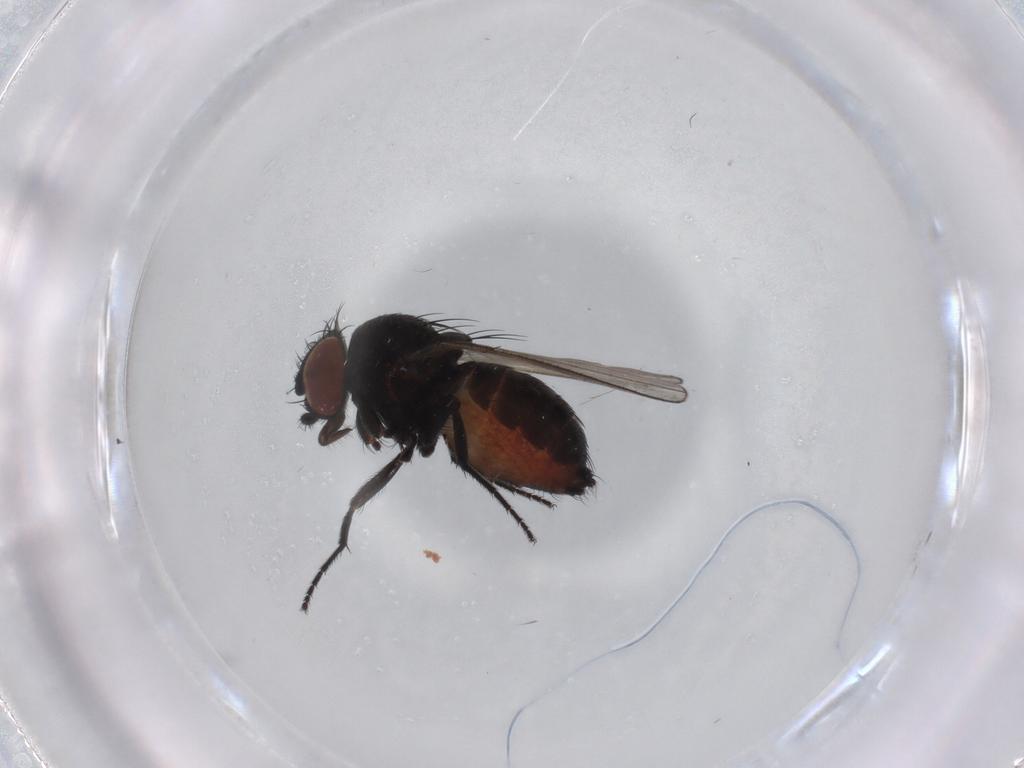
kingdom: Animalia
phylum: Arthropoda
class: Insecta
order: Diptera
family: Milichiidae
